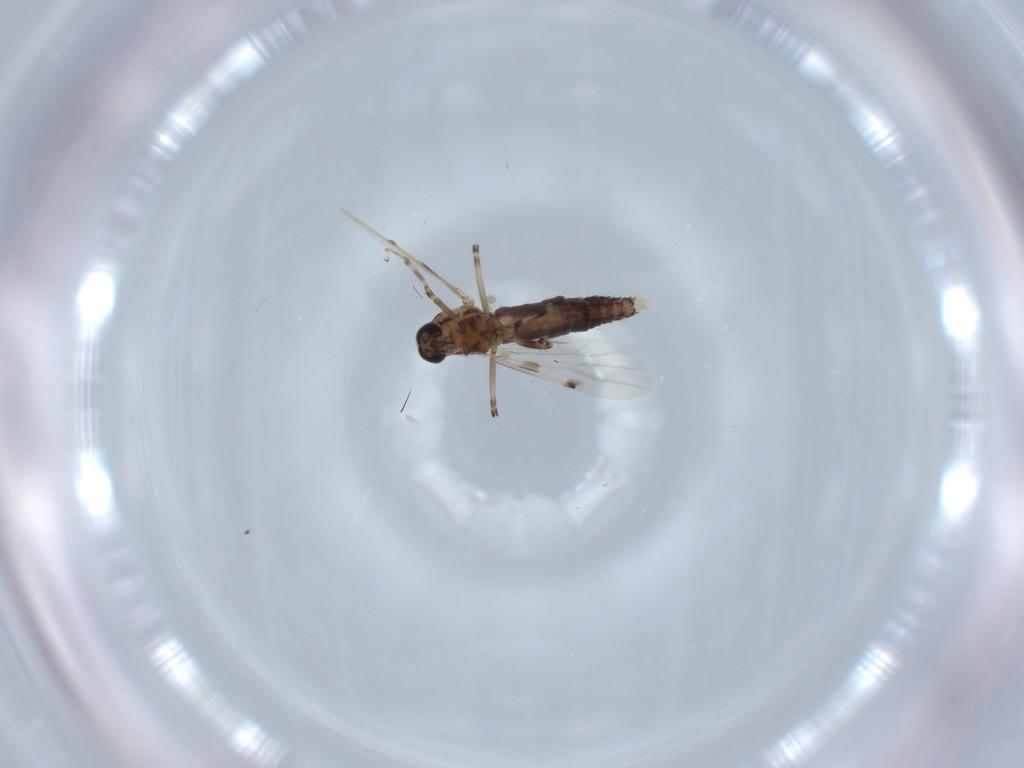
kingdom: Animalia
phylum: Arthropoda
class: Insecta
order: Diptera
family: Ceratopogonidae
